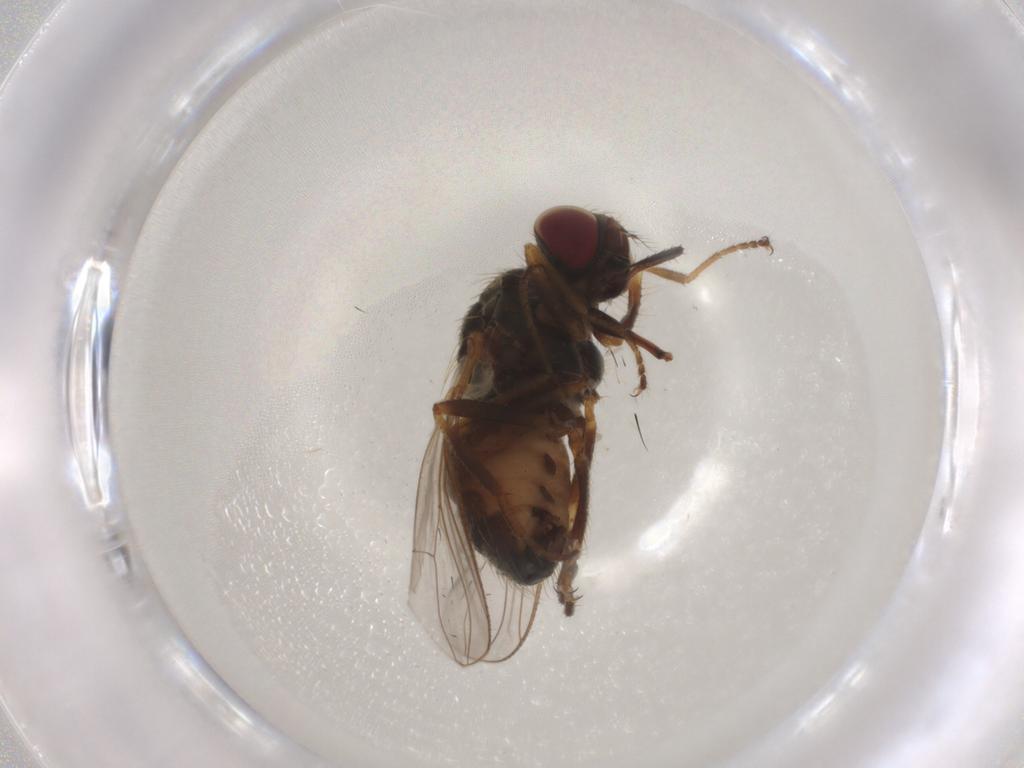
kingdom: Animalia
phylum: Arthropoda
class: Insecta
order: Diptera
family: Muscidae
